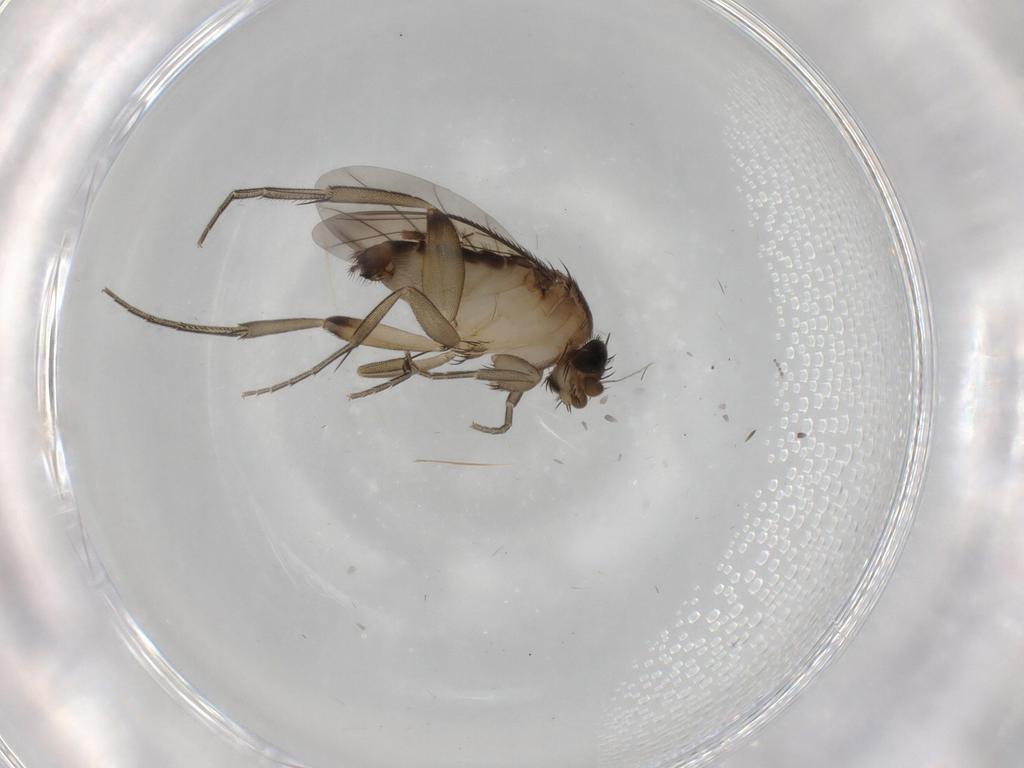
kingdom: Animalia
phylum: Arthropoda
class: Insecta
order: Diptera
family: Phoridae
